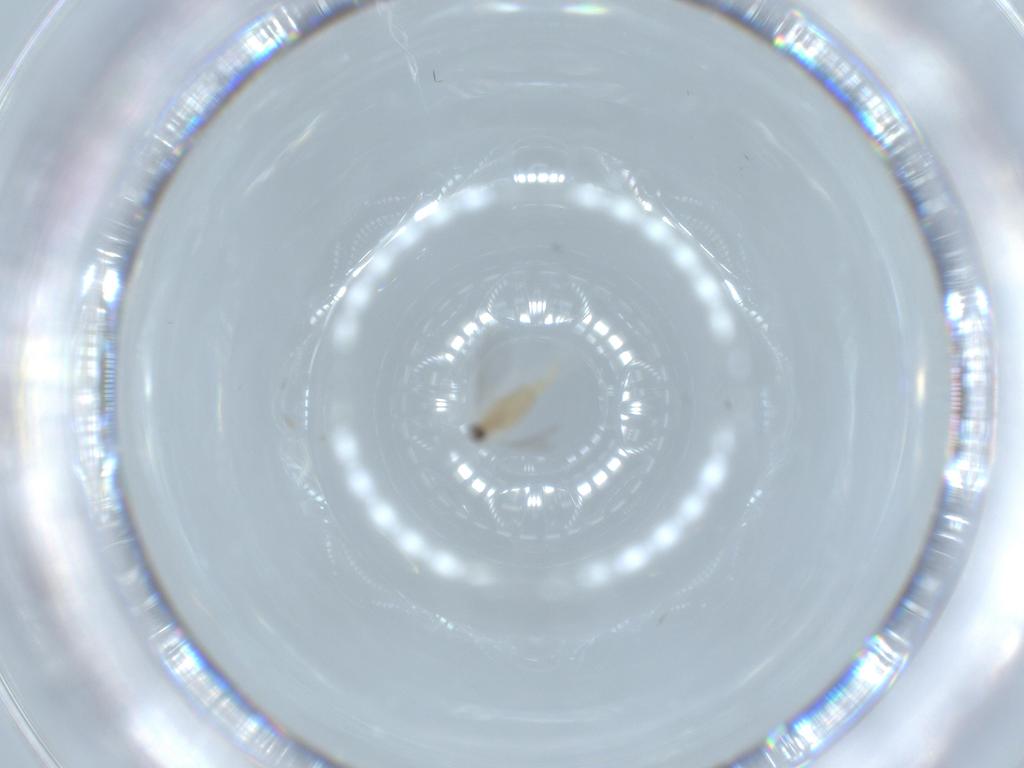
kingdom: Animalia
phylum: Arthropoda
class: Insecta
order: Diptera
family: Cecidomyiidae
